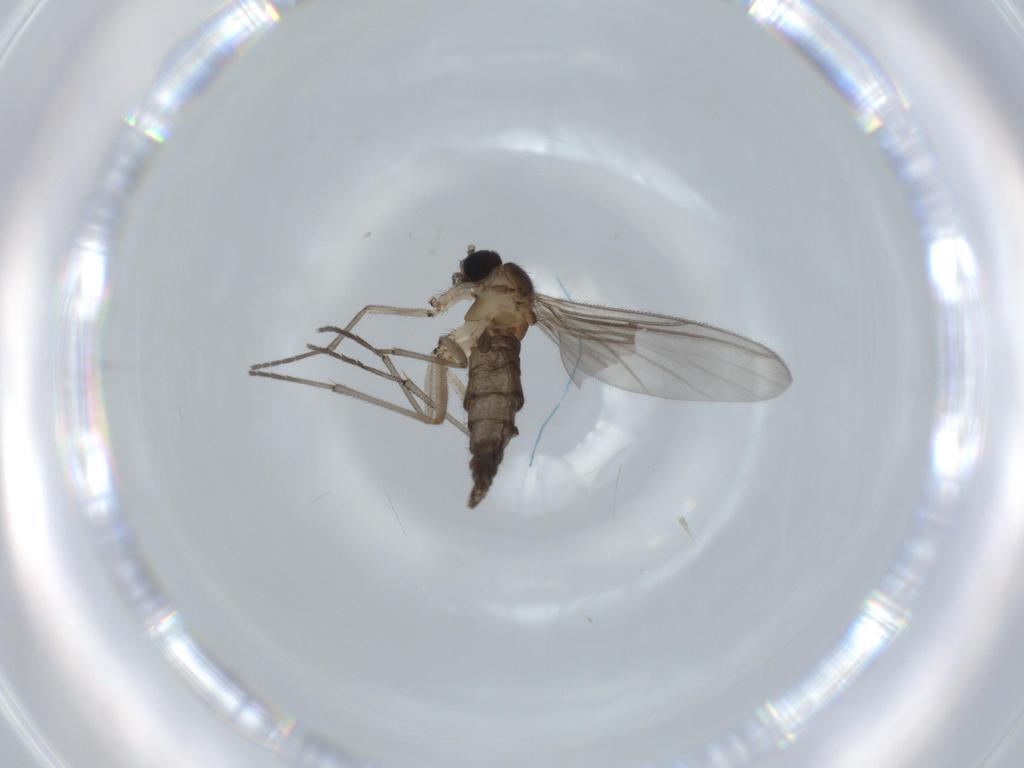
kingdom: Animalia
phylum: Arthropoda
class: Insecta
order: Diptera
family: Sciaridae
